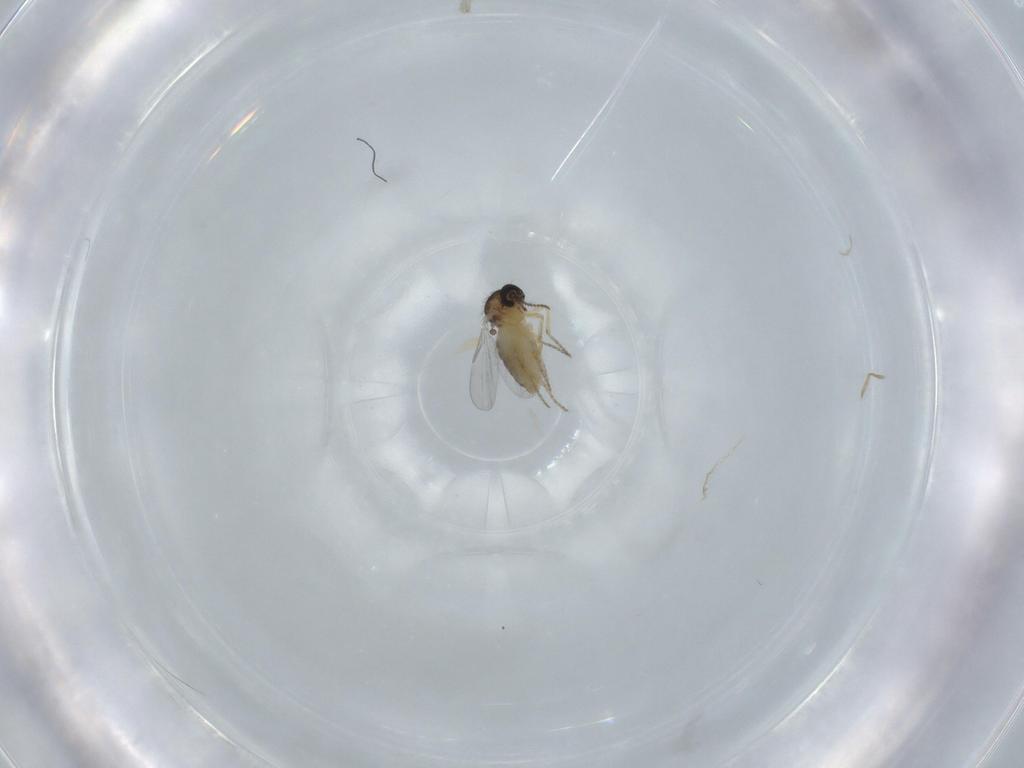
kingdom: Animalia
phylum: Arthropoda
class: Insecta
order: Diptera
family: Ceratopogonidae
